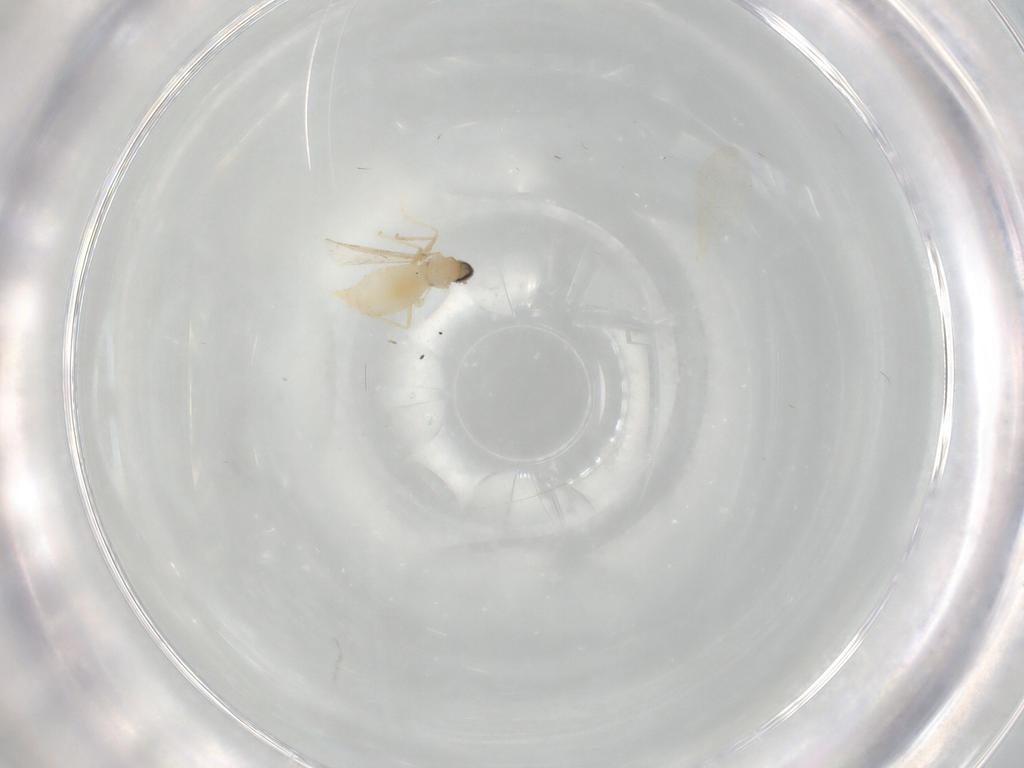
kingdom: Animalia
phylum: Arthropoda
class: Insecta
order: Diptera
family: Cecidomyiidae
